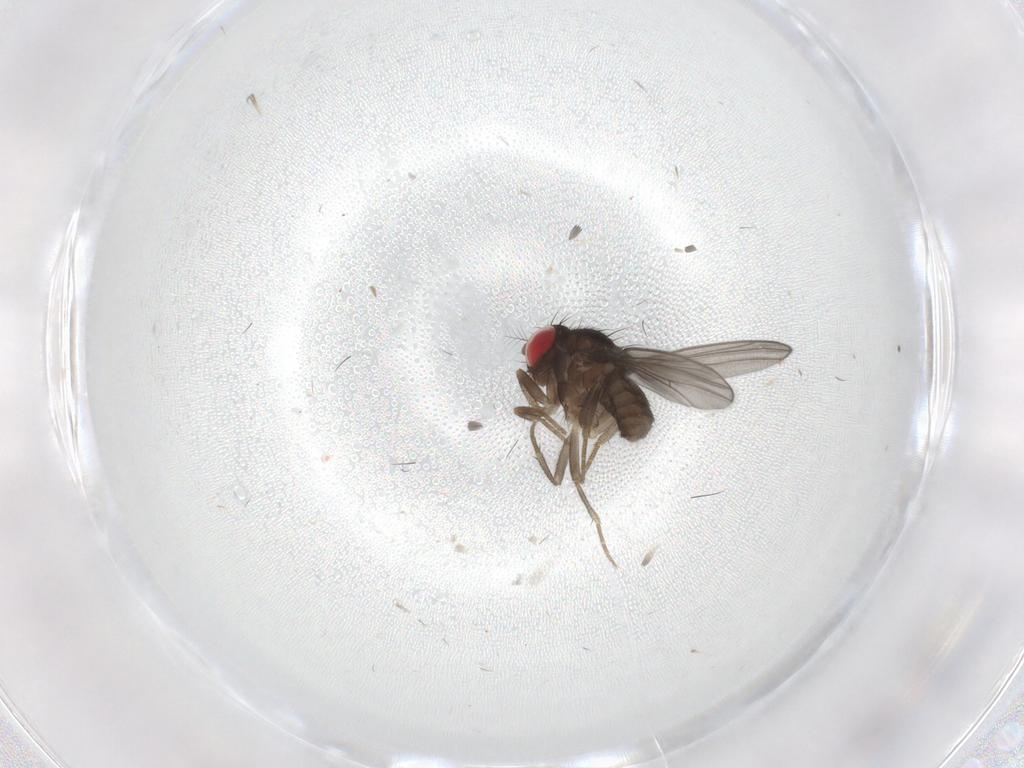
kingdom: Animalia
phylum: Arthropoda
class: Insecta
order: Diptera
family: Drosophilidae
